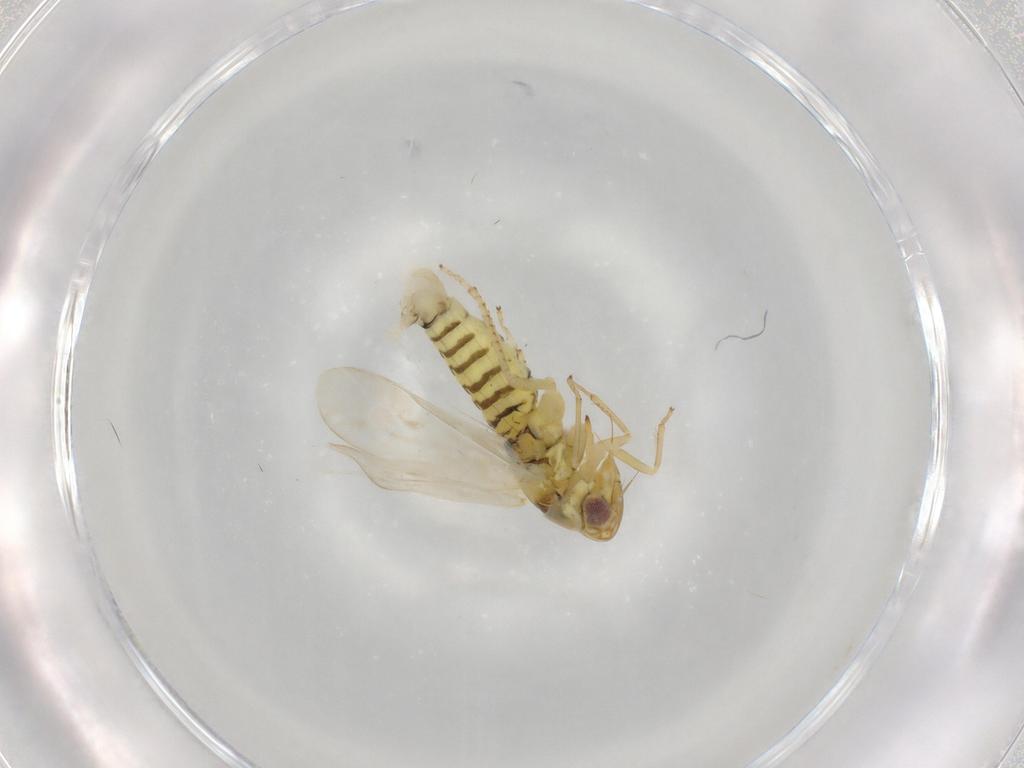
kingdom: Animalia
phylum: Arthropoda
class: Insecta
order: Hemiptera
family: Cicadellidae
